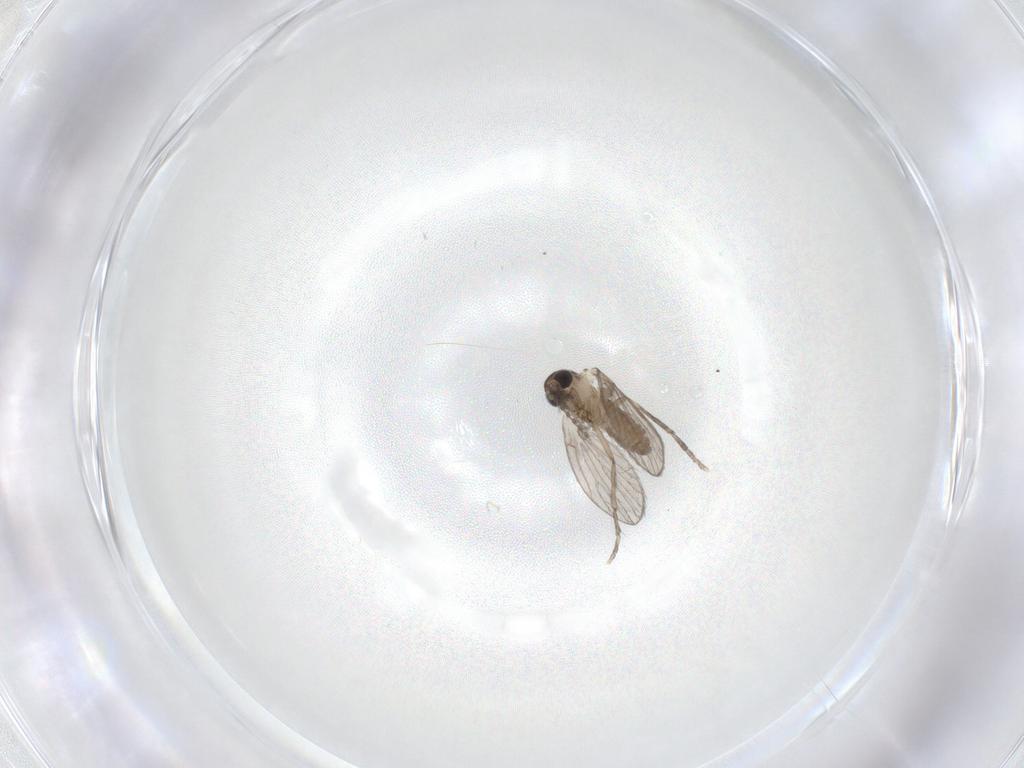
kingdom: Animalia
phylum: Arthropoda
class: Insecta
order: Diptera
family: Psychodidae
